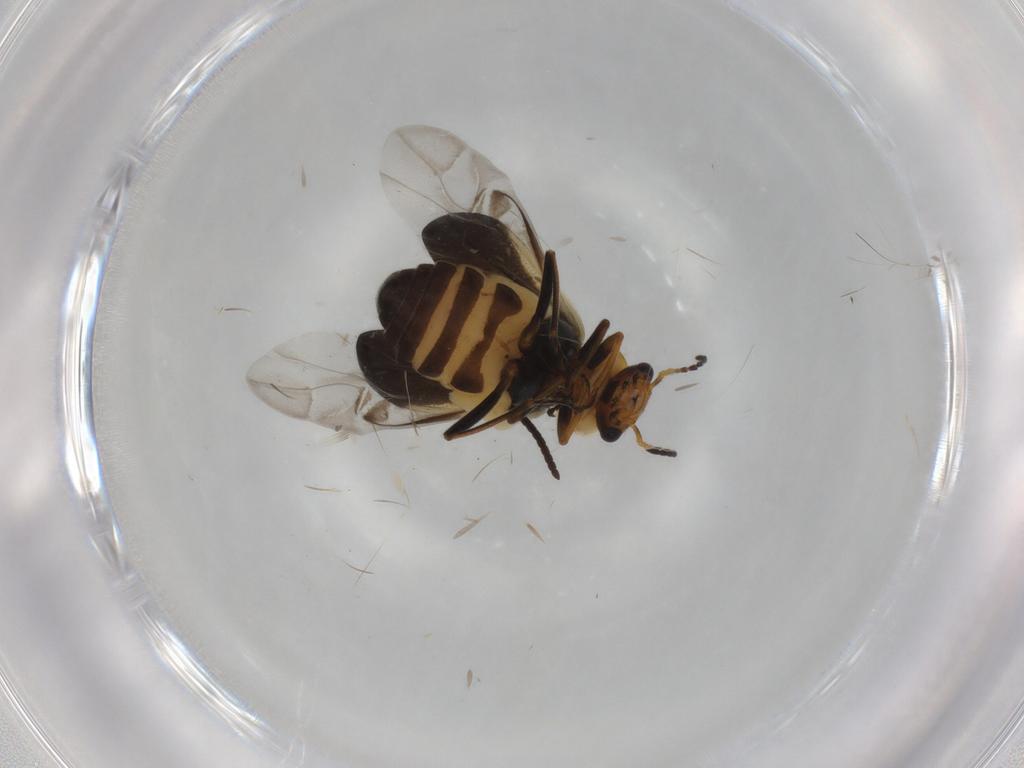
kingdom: Animalia
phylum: Arthropoda
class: Insecta
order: Coleoptera
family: Melyridae
